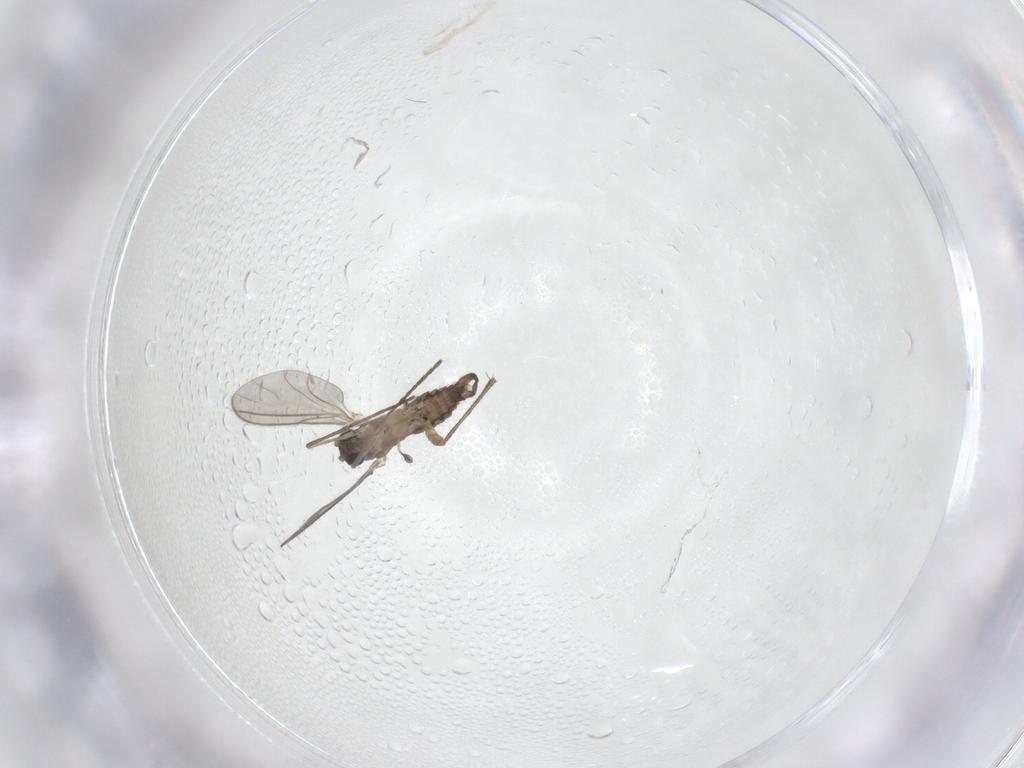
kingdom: Animalia
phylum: Arthropoda
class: Insecta
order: Diptera
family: Sciaridae
